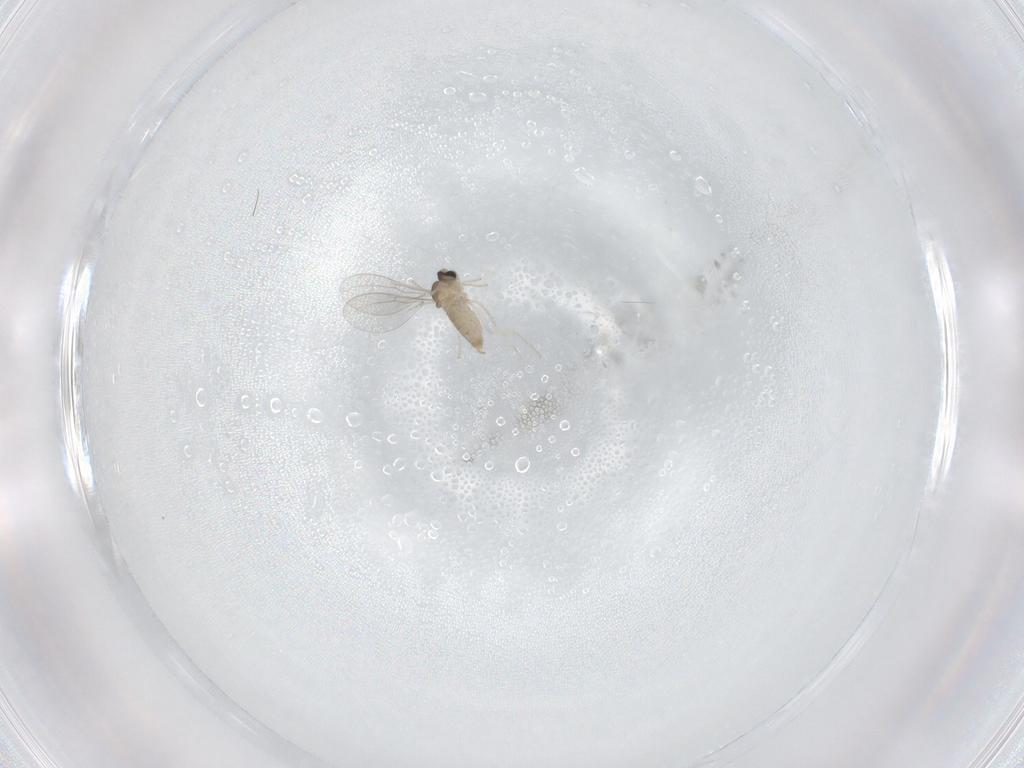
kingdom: Animalia
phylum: Arthropoda
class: Insecta
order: Diptera
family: Cecidomyiidae
